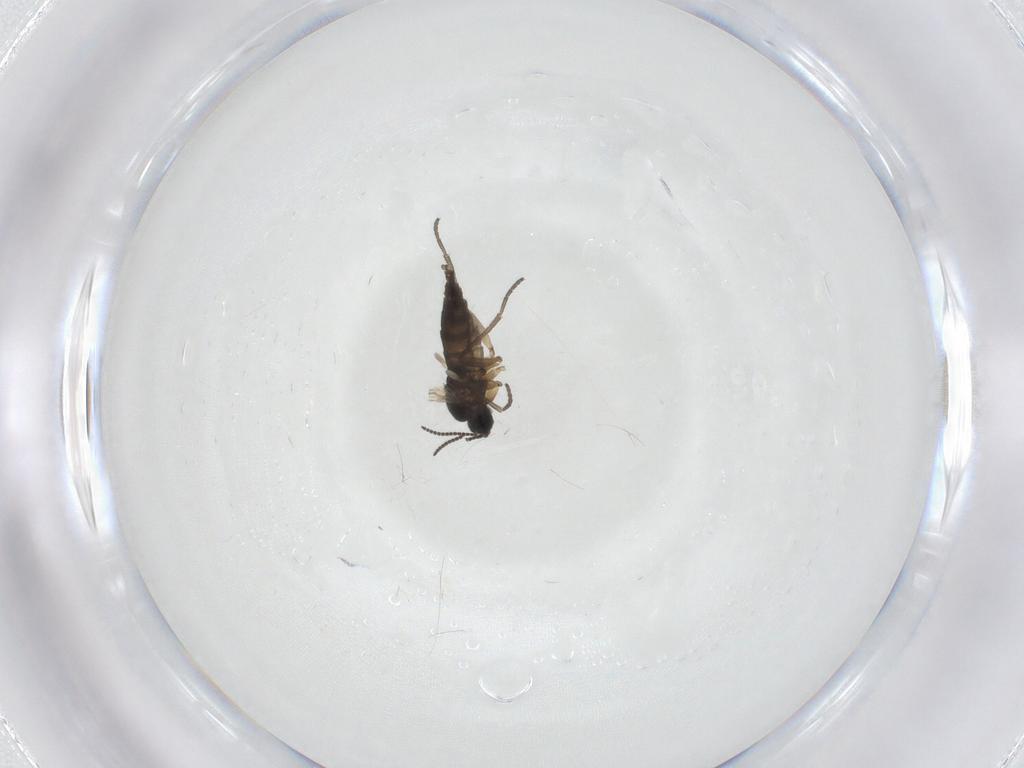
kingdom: Animalia
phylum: Arthropoda
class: Insecta
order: Diptera
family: Sciaridae
